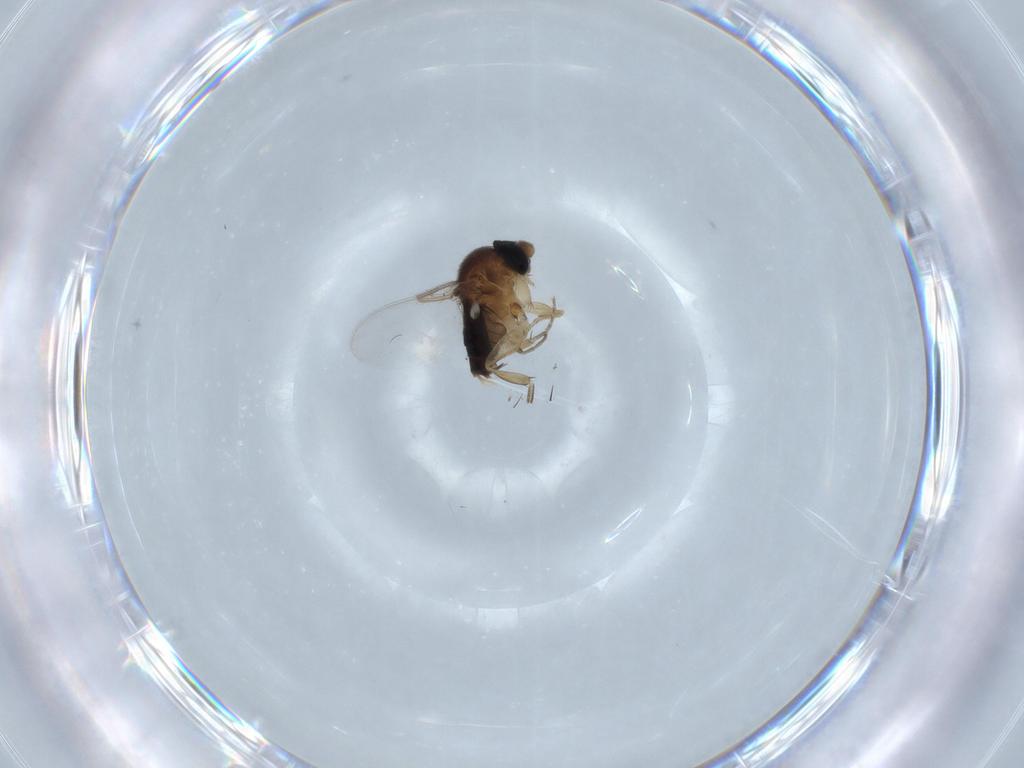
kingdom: Animalia
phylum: Arthropoda
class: Insecta
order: Diptera
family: Phoridae
